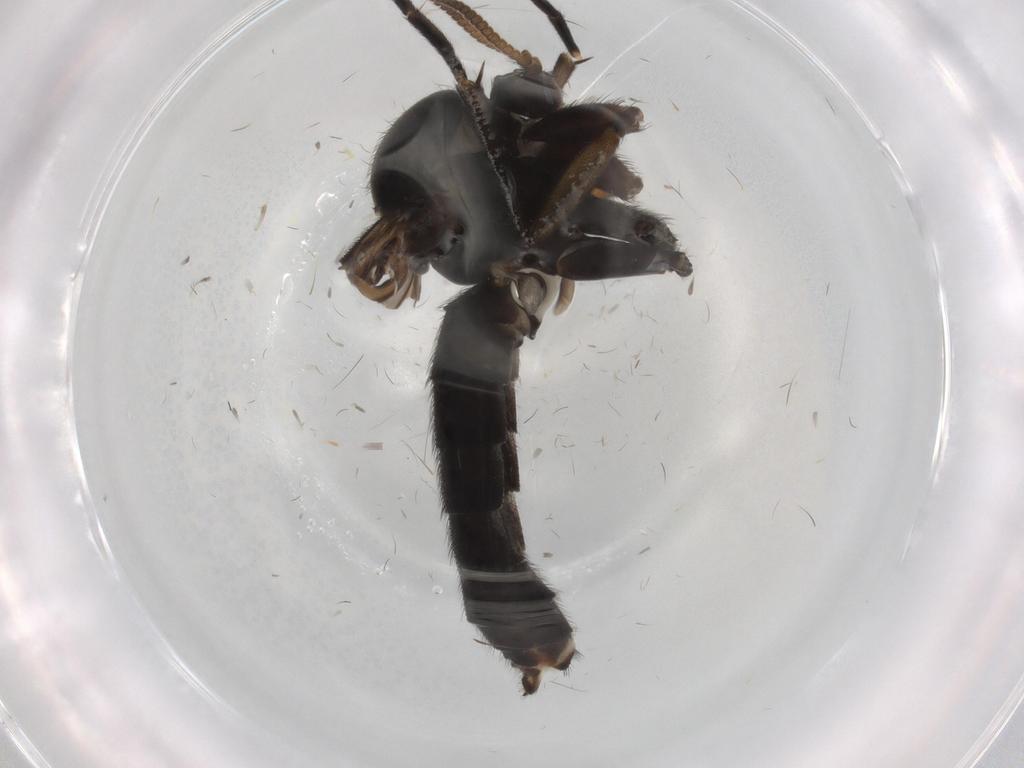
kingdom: Animalia
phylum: Arthropoda
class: Insecta
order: Diptera
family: Mycetophilidae
